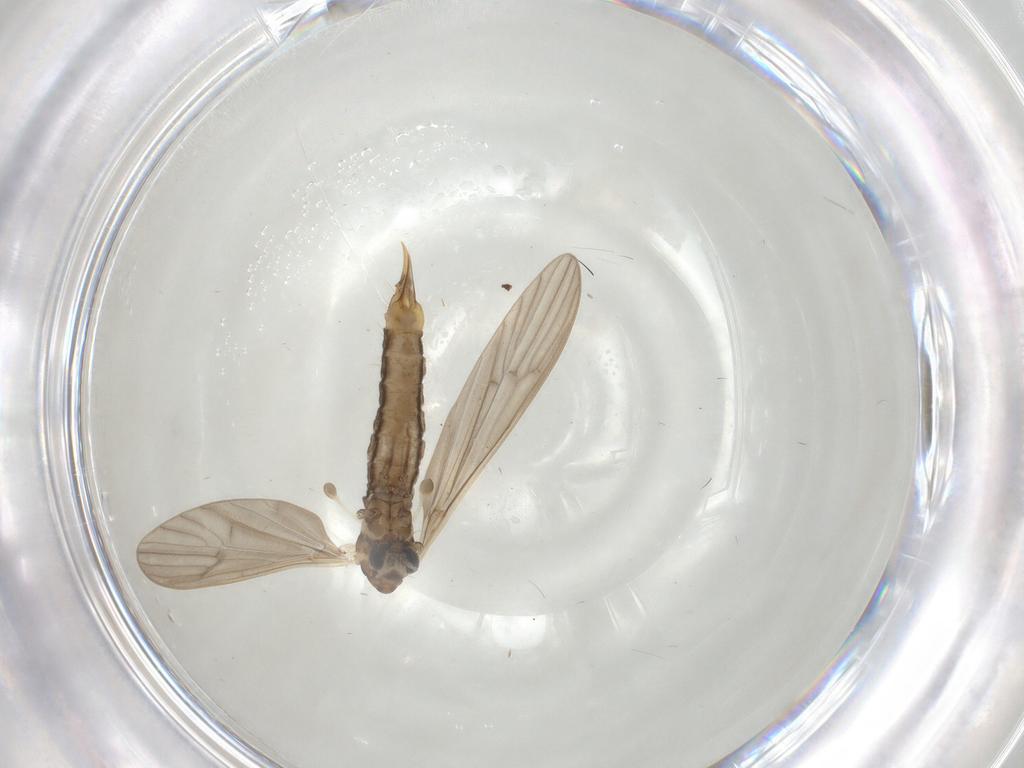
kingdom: Animalia
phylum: Arthropoda
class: Insecta
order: Diptera
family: Limoniidae
